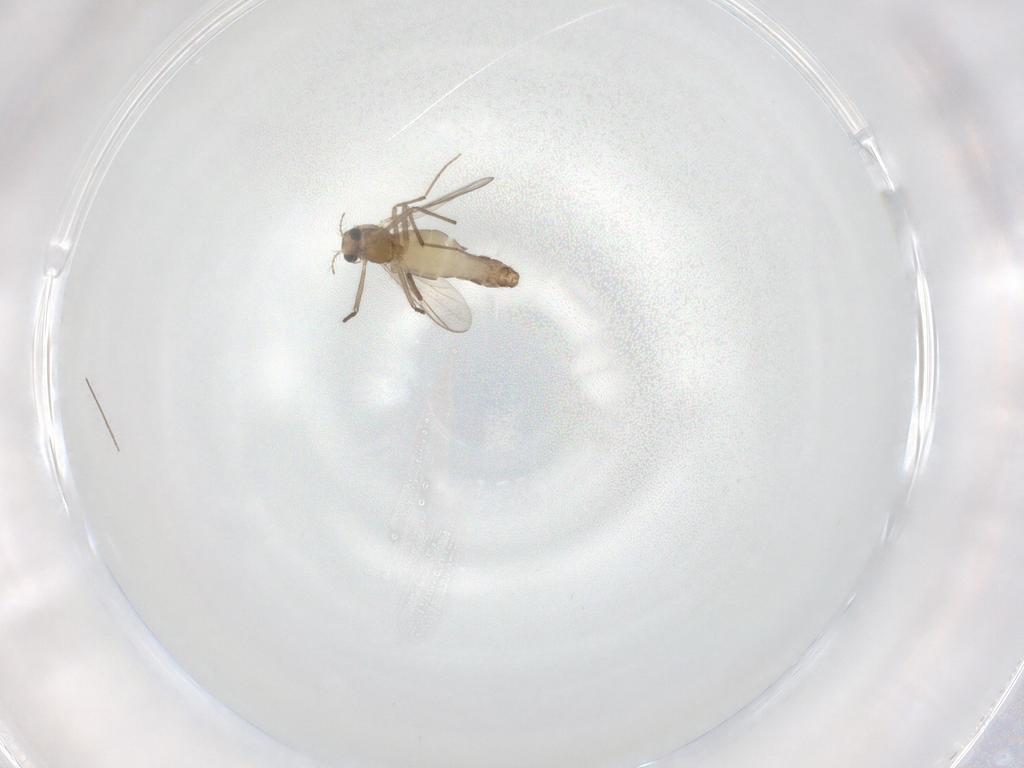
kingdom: Animalia
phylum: Arthropoda
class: Insecta
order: Diptera
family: Chironomidae
